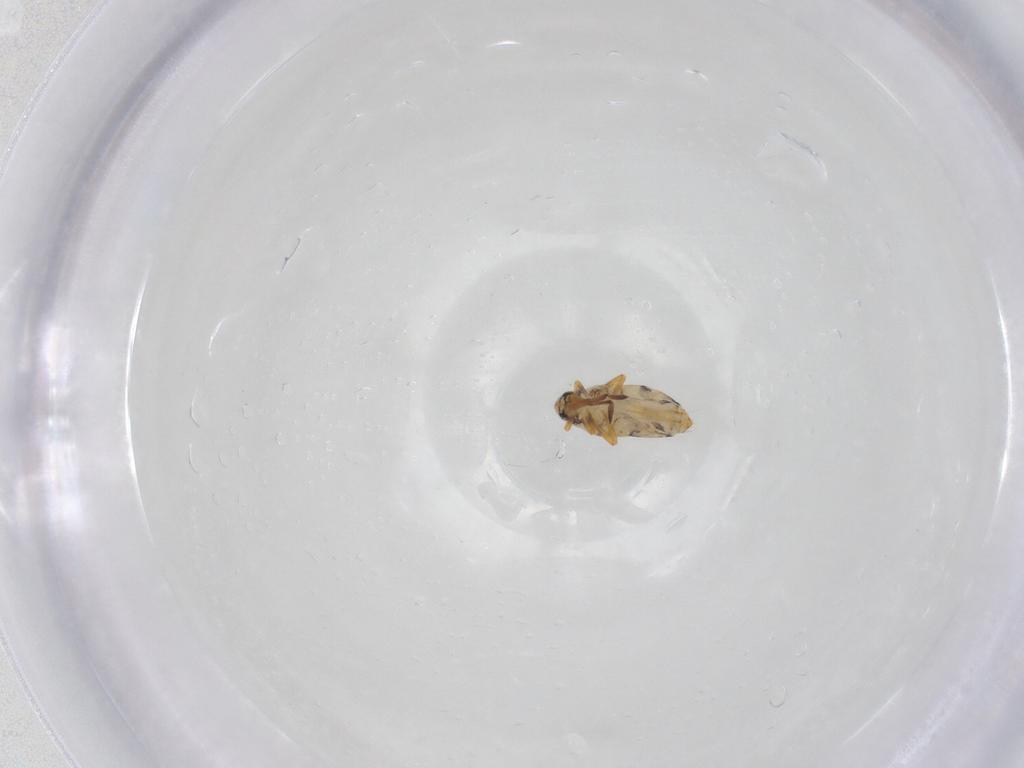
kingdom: Animalia
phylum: Arthropoda
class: Collembola
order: Entomobryomorpha
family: Entomobryidae
